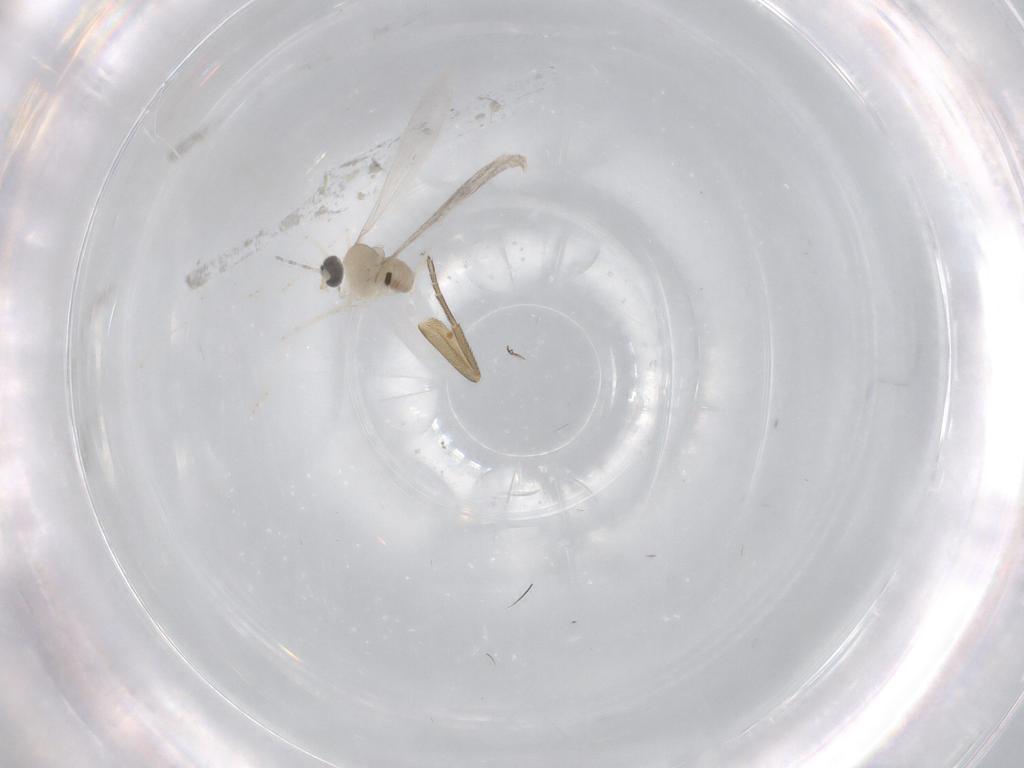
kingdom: Animalia
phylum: Arthropoda
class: Insecta
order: Diptera
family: Cecidomyiidae
